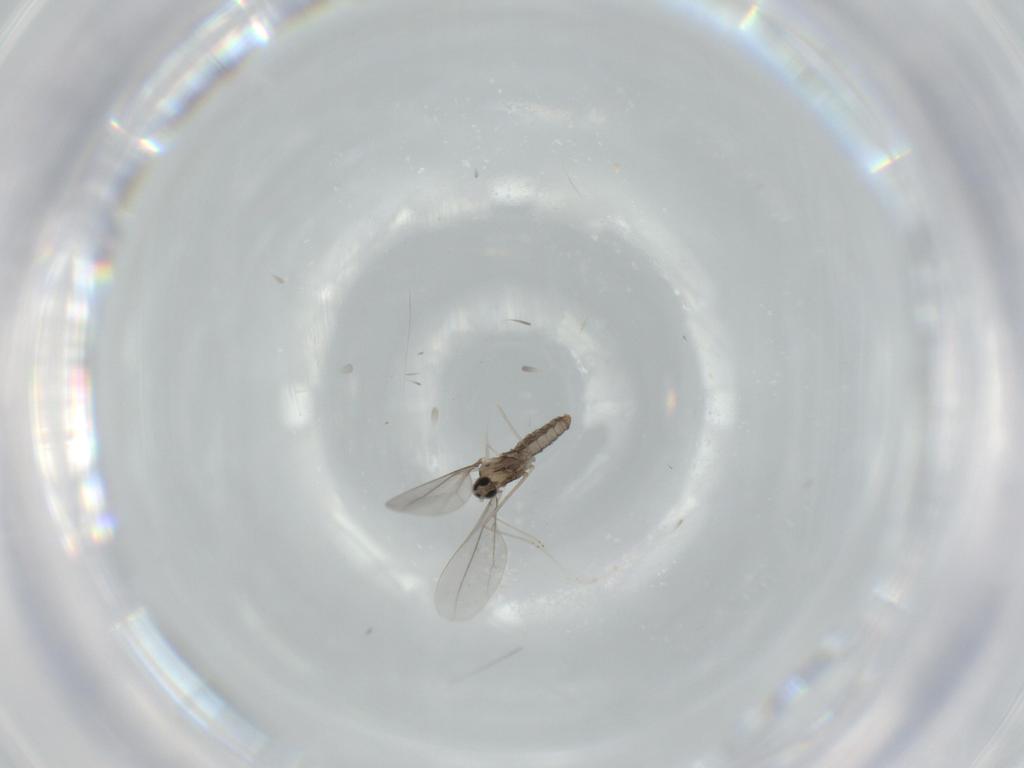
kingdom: Animalia
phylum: Arthropoda
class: Insecta
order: Diptera
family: Cecidomyiidae
